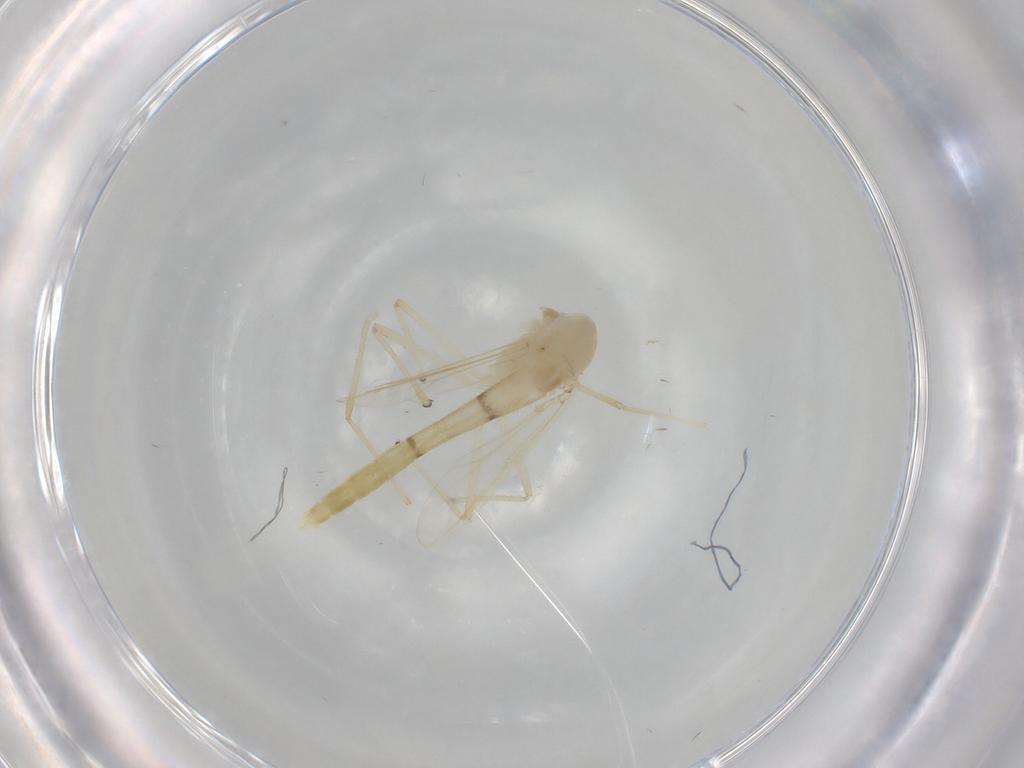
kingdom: Animalia
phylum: Arthropoda
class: Insecta
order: Diptera
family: Chironomidae
